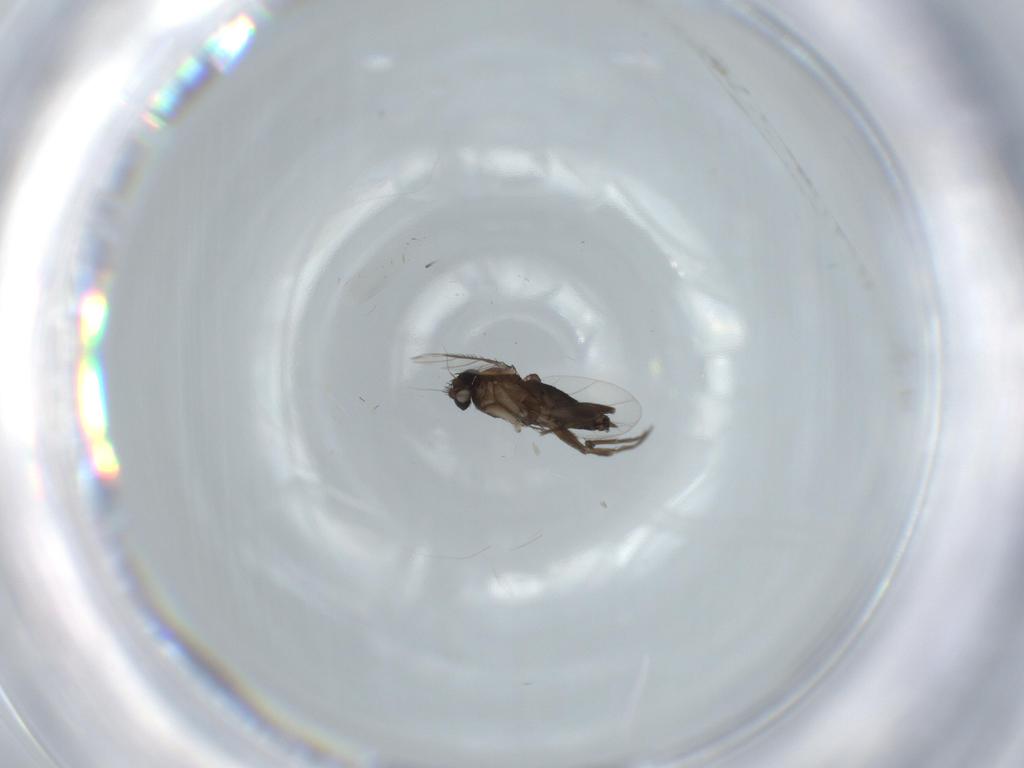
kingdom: Animalia
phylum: Arthropoda
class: Insecta
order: Diptera
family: Phoridae
